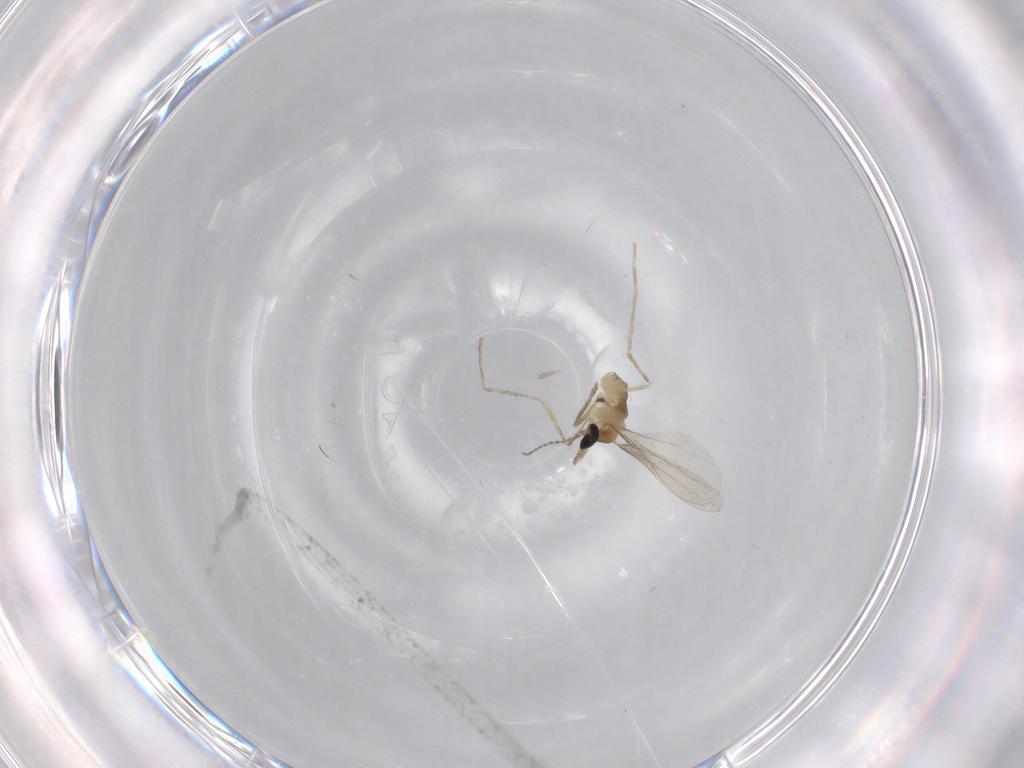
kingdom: Animalia
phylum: Arthropoda
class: Insecta
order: Diptera
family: Cecidomyiidae
